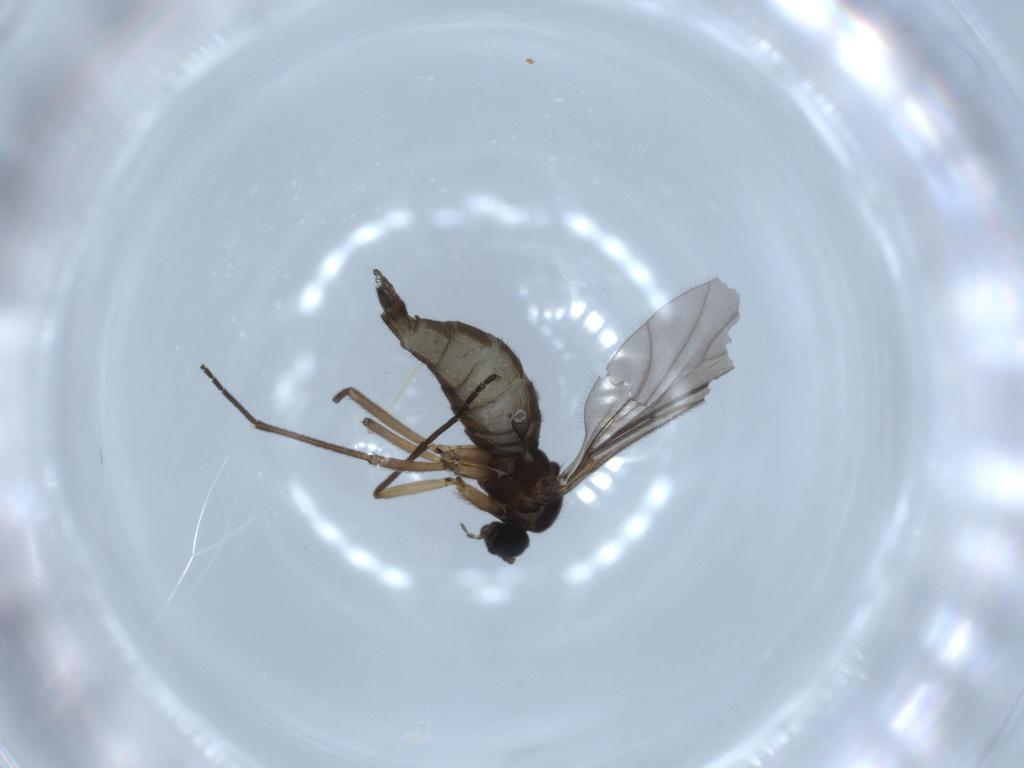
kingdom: Animalia
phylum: Arthropoda
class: Insecta
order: Diptera
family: Sciaridae
